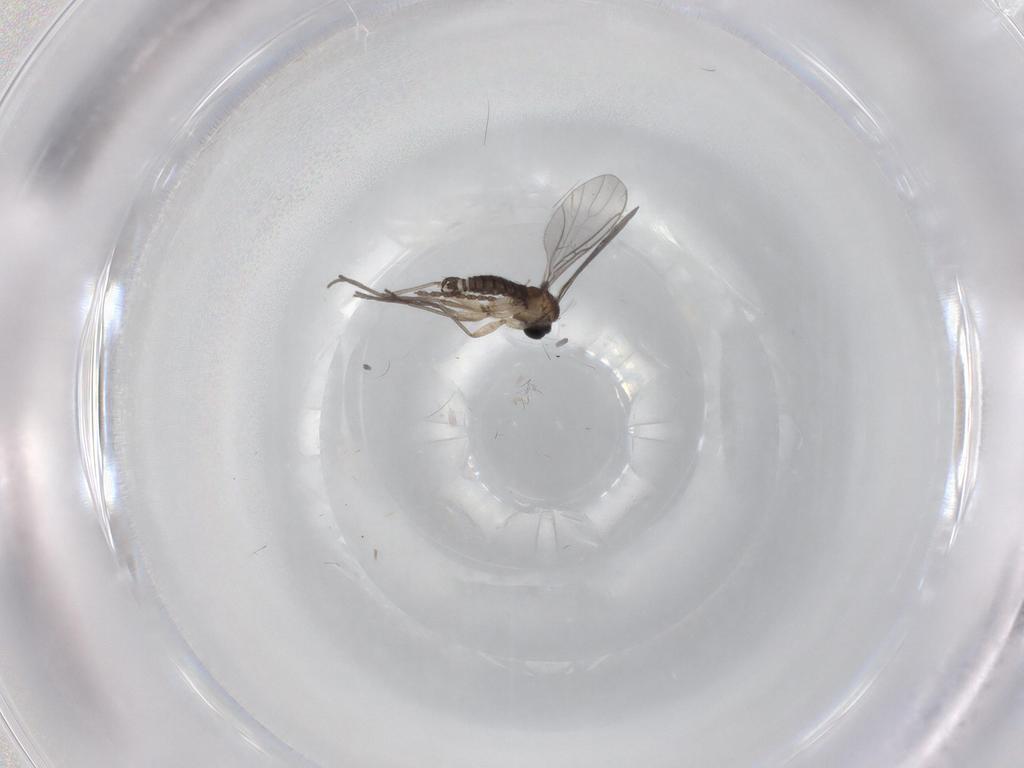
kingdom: Animalia
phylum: Arthropoda
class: Insecta
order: Diptera
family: Sciaridae
